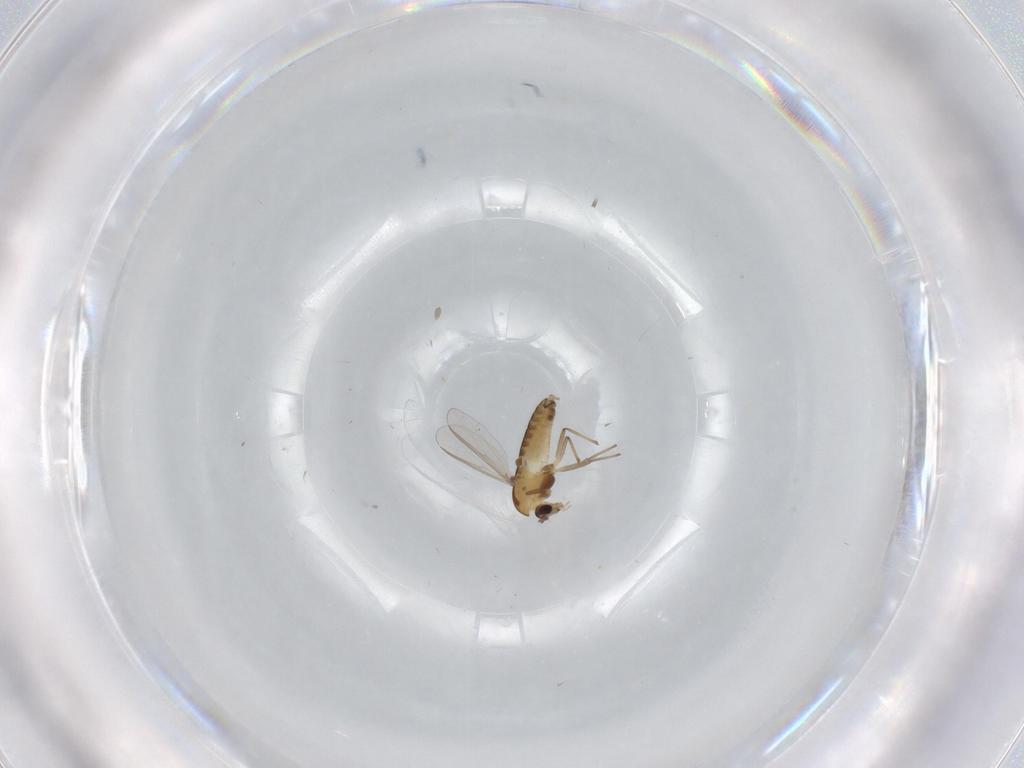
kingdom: Animalia
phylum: Arthropoda
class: Insecta
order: Diptera
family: Chironomidae
